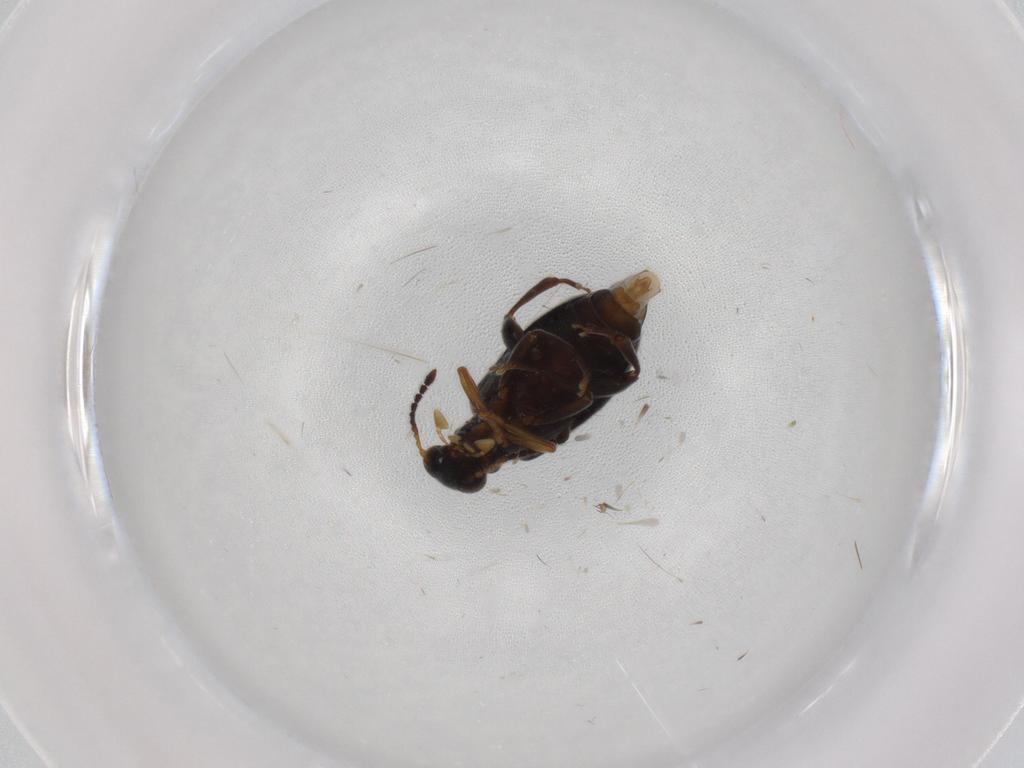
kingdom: Animalia
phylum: Arthropoda
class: Insecta
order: Coleoptera
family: Aderidae
